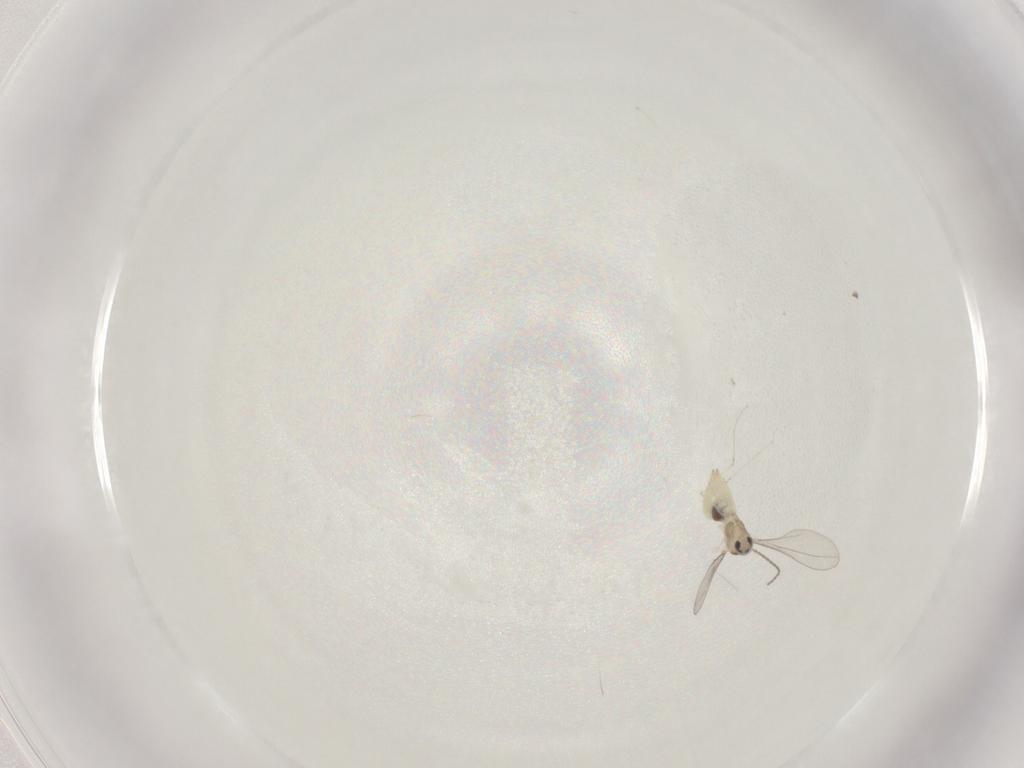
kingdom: Animalia
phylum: Arthropoda
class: Insecta
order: Diptera
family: Cecidomyiidae
